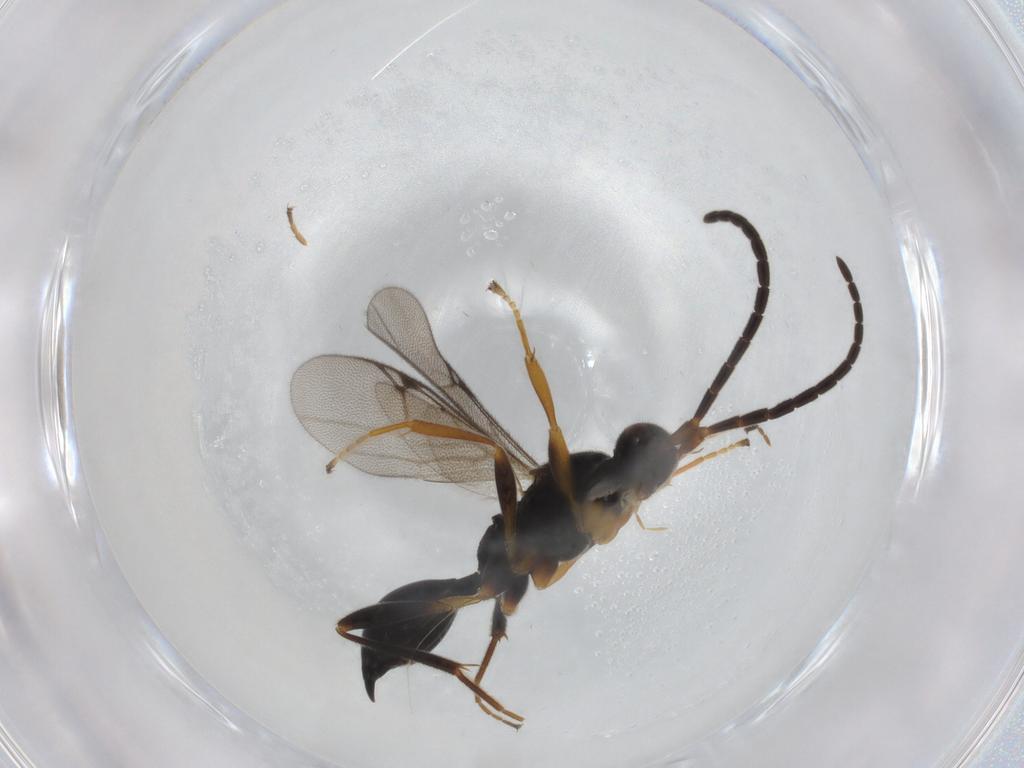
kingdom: Animalia
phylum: Arthropoda
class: Insecta
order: Hymenoptera
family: Proctotrupidae
